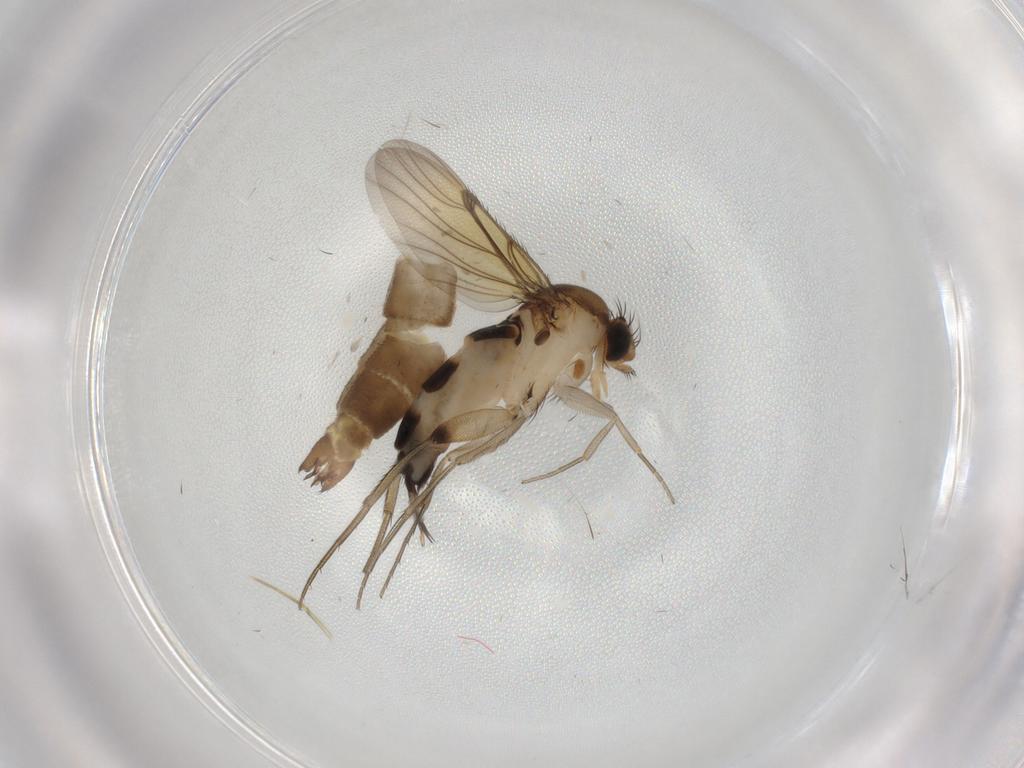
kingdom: Animalia
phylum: Arthropoda
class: Insecta
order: Diptera
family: Phoridae
